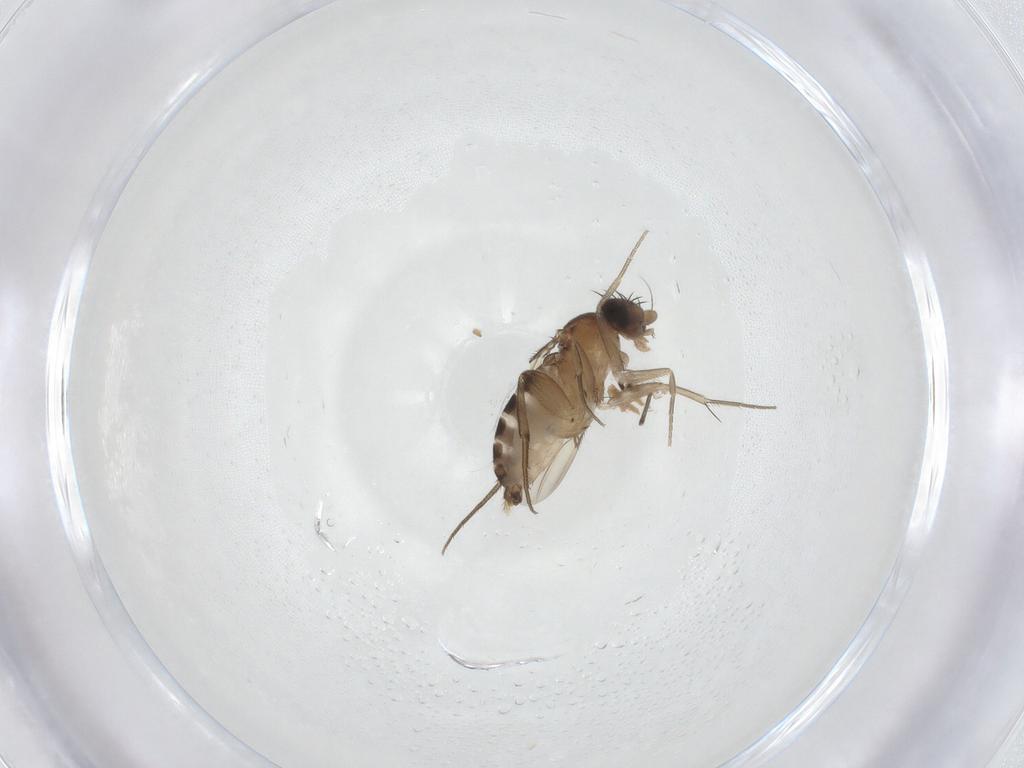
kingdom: Animalia
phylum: Arthropoda
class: Insecta
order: Diptera
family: Phoridae
